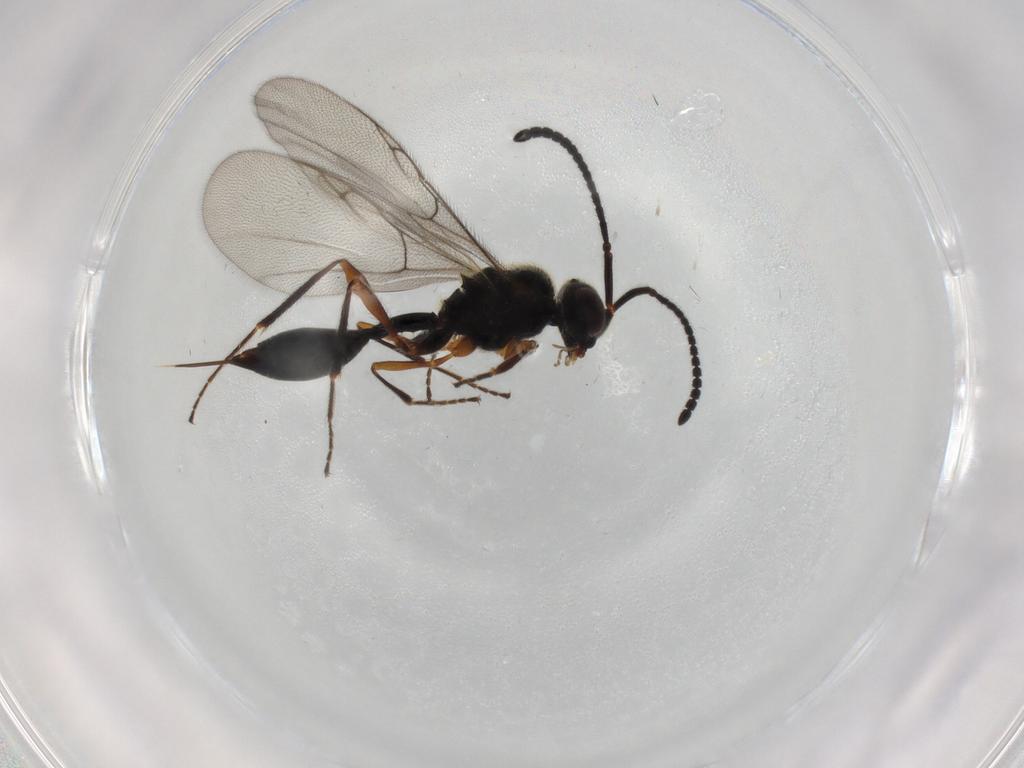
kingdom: Animalia
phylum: Arthropoda
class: Insecta
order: Hymenoptera
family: Diapriidae
